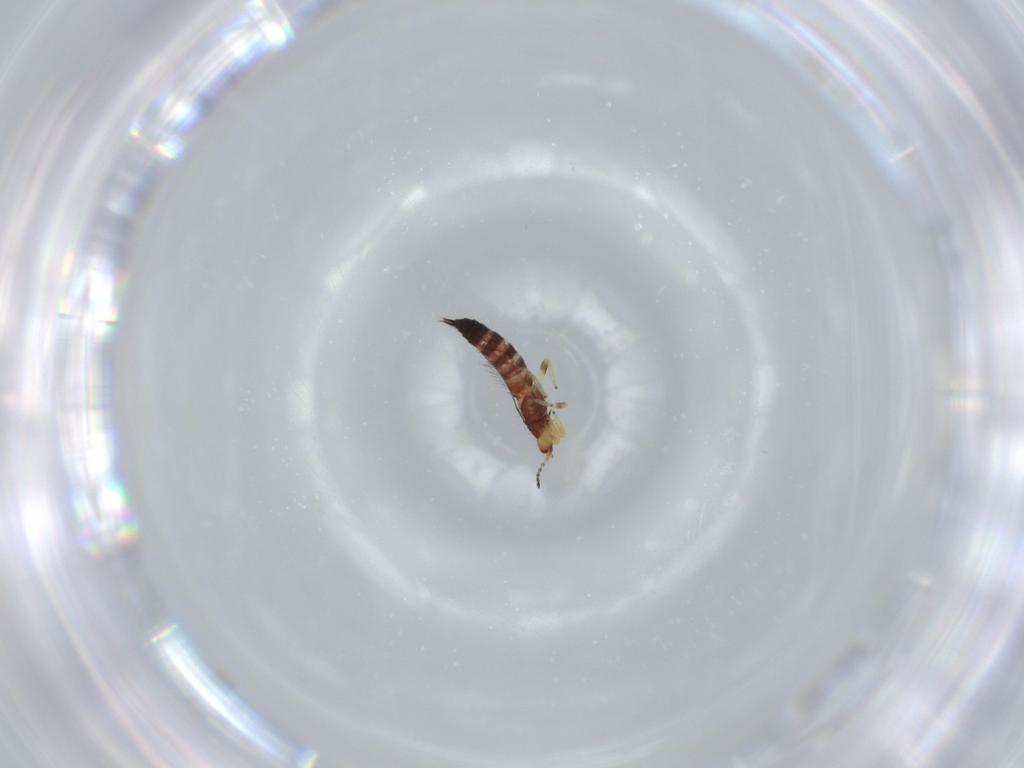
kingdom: Animalia
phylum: Arthropoda
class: Insecta
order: Thysanoptera
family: Phlaeothripidae
